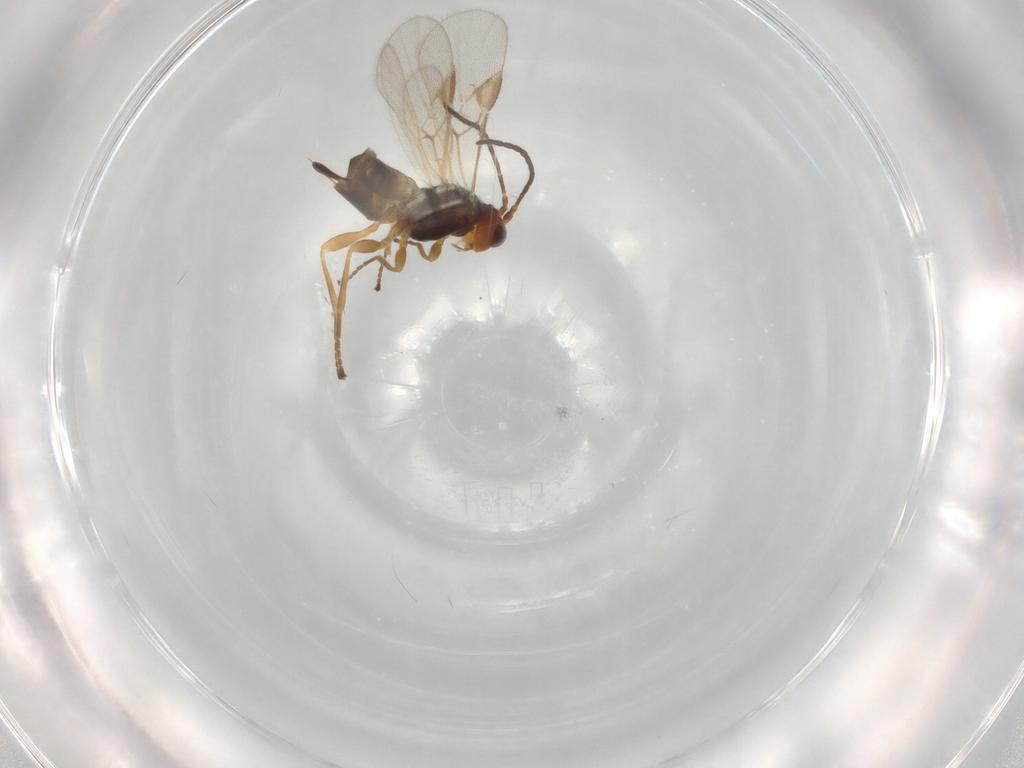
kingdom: Animalia
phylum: Arthropoda
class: Insecta
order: Hymenoptera
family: Braconidae
